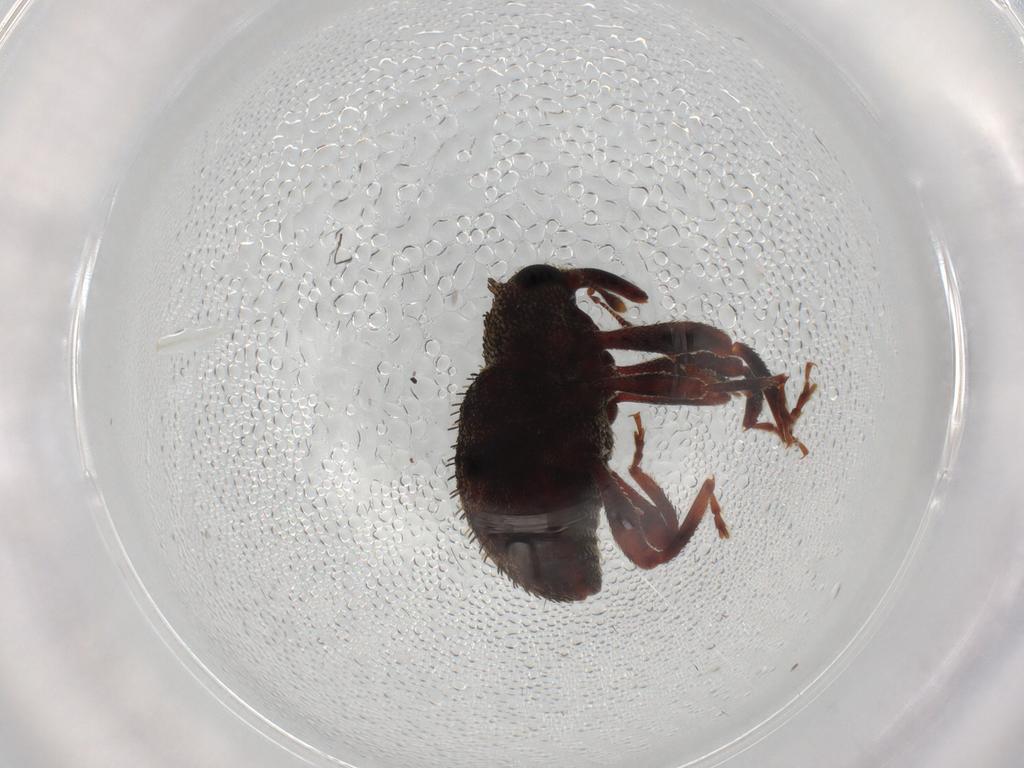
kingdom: Animalia
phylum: Arthropoda
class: Insecta
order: Coleoptera
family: Curculionidae
